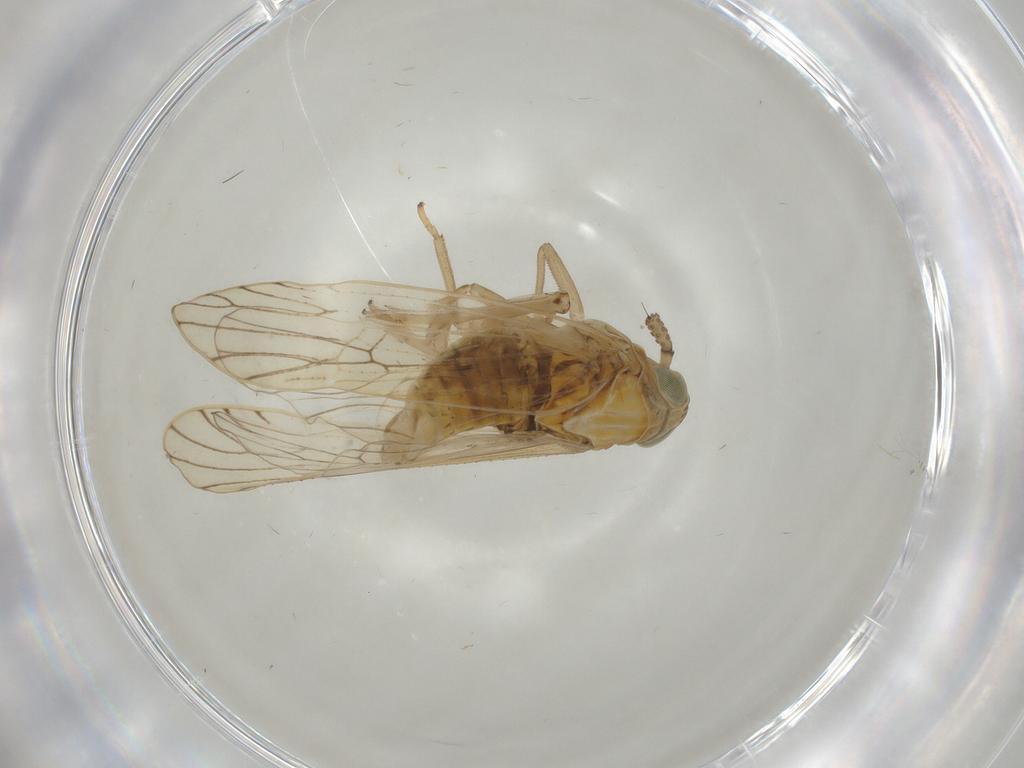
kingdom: Animalia
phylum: Arthropoda
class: Insecta
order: Hemiptera
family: Delphacidae
